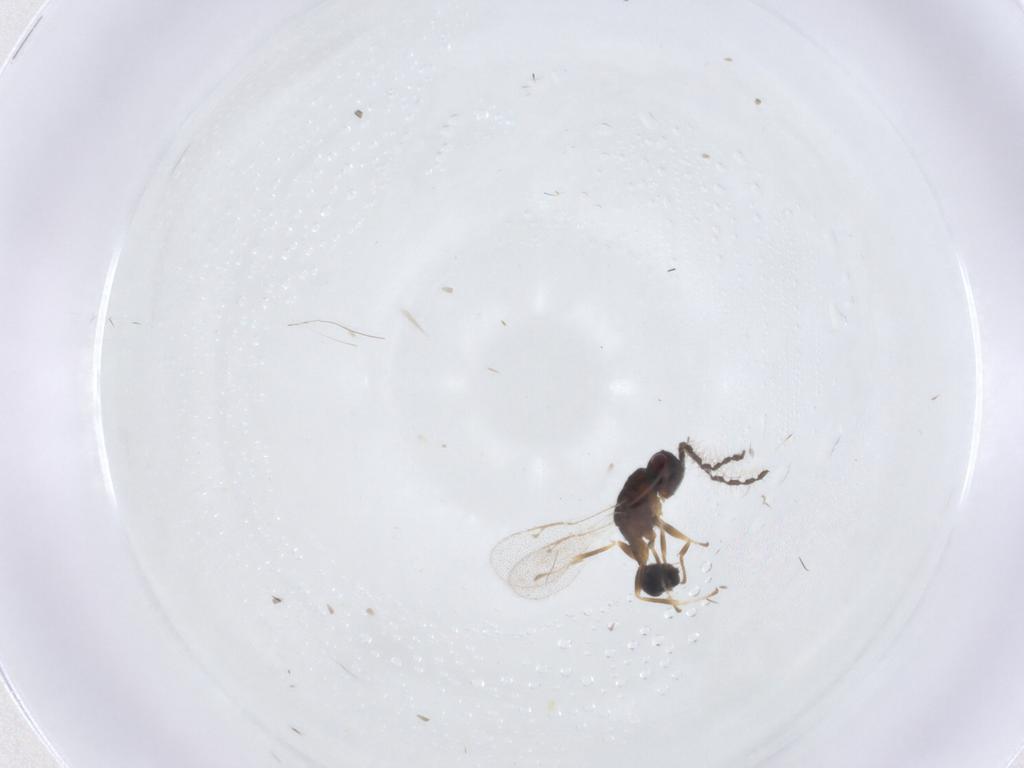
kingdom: Animalia
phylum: Arthropoda
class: Insecta
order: Hymenoptera
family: Eurytomidae
